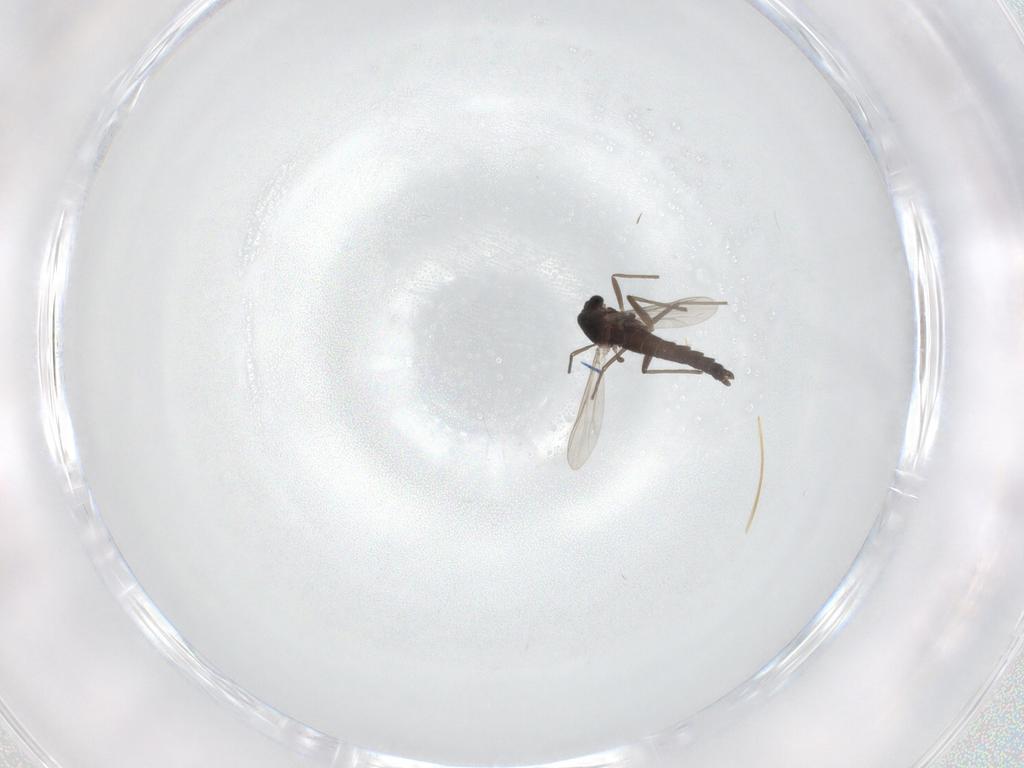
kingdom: Animalia
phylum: Arthropoda
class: Insecta
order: Diptera
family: Chironomidae
